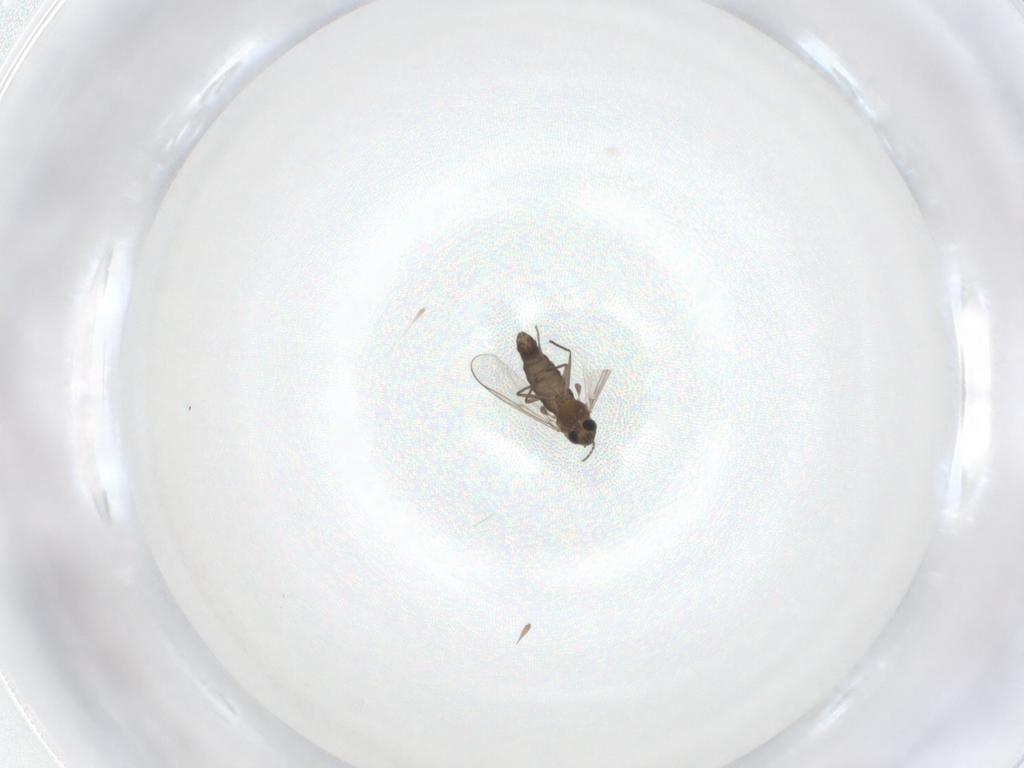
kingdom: Animalia
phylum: Arthropoda
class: Insecta
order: Diptera
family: Chironomidae
